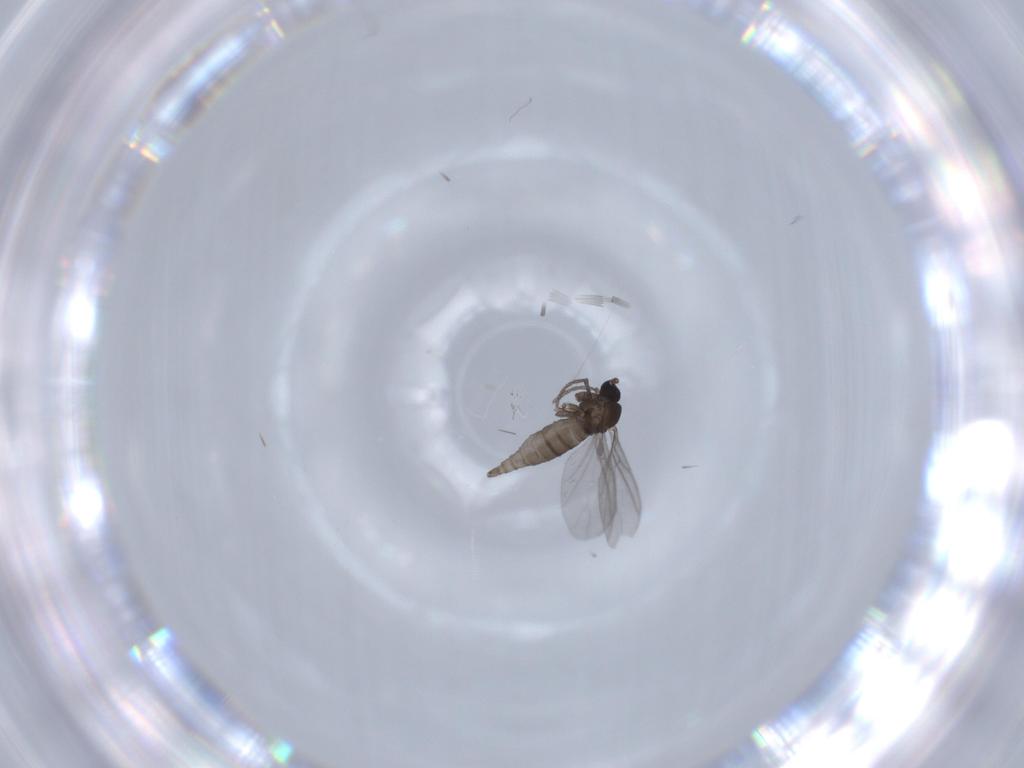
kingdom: Animalia
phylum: Arthropoda
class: Insecta
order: Diptera
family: Sciaridae
